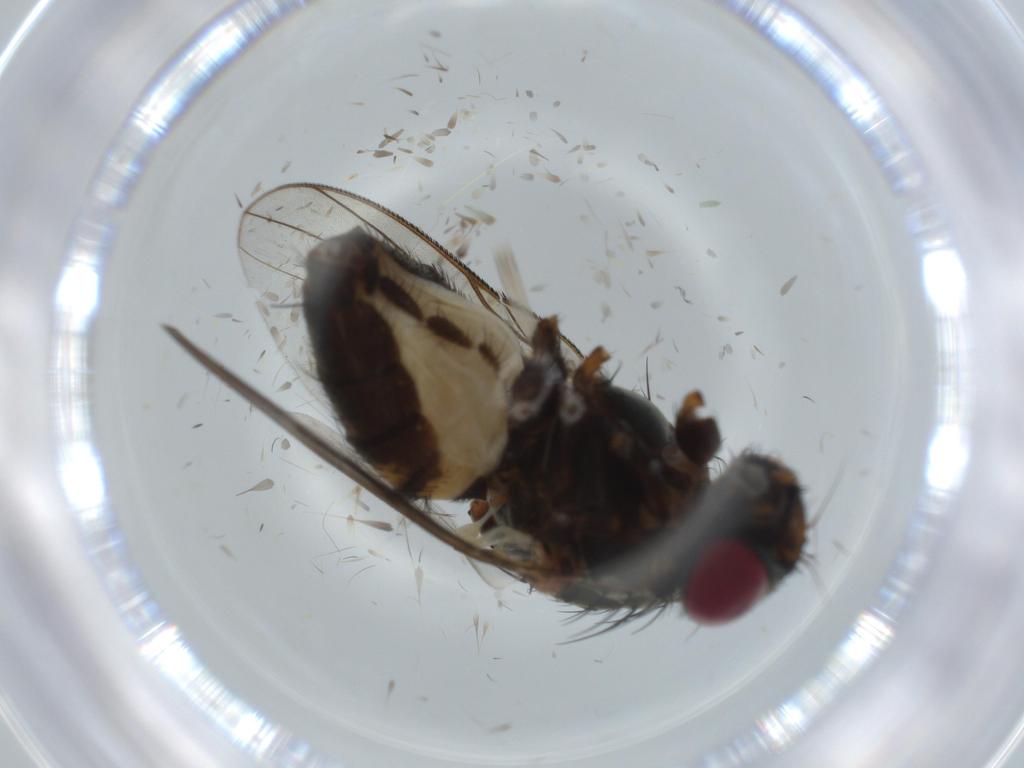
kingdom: Animalia
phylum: Arthropoda
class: Insecta
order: Diptera
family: Fannia
